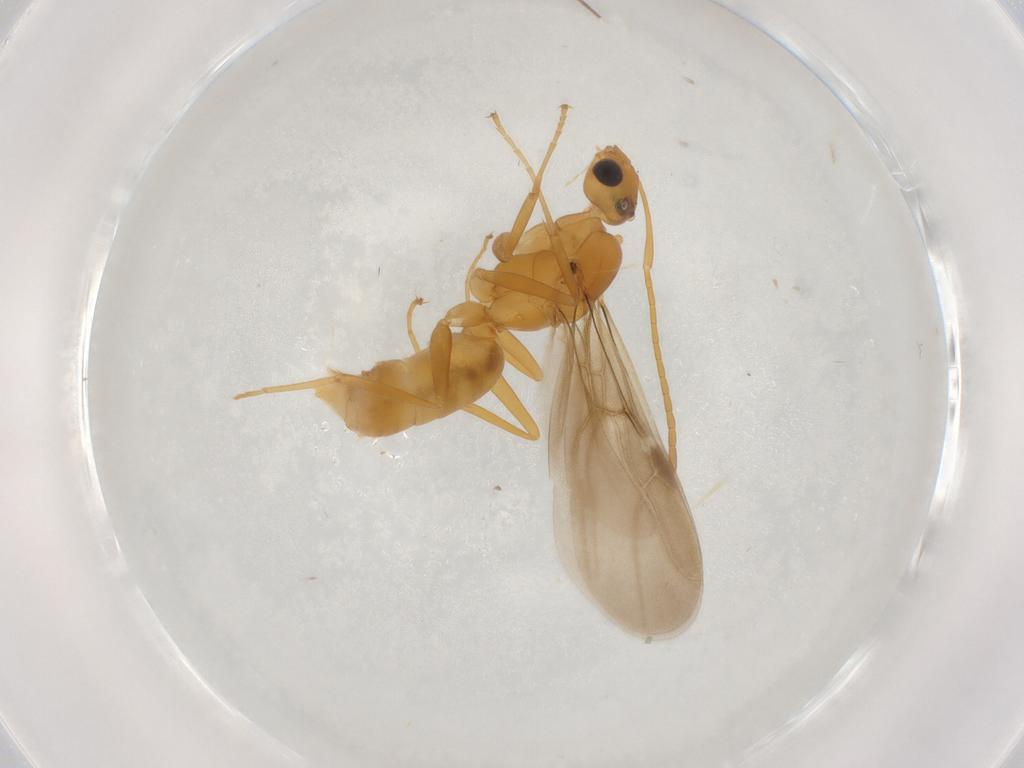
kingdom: Animalia
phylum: Arthropoda
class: Insecta
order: Hymenoptera
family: Formicidae
